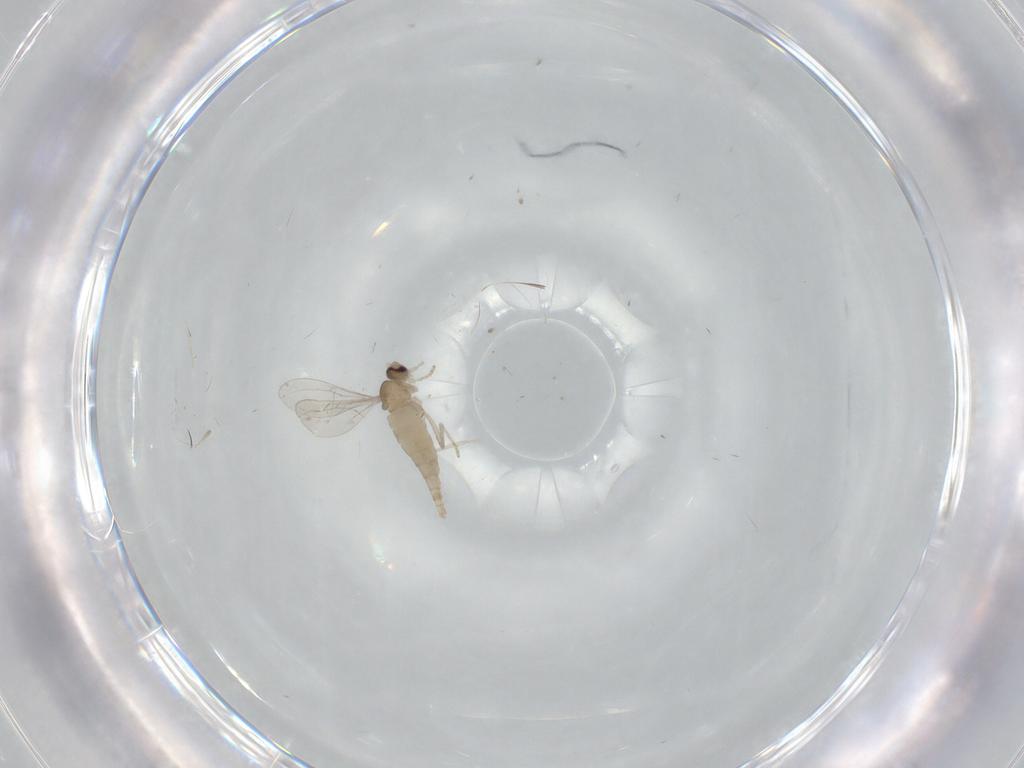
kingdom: Animalia
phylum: Arthropoda
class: Insecta
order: Diptera
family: Cecidomyiidae
